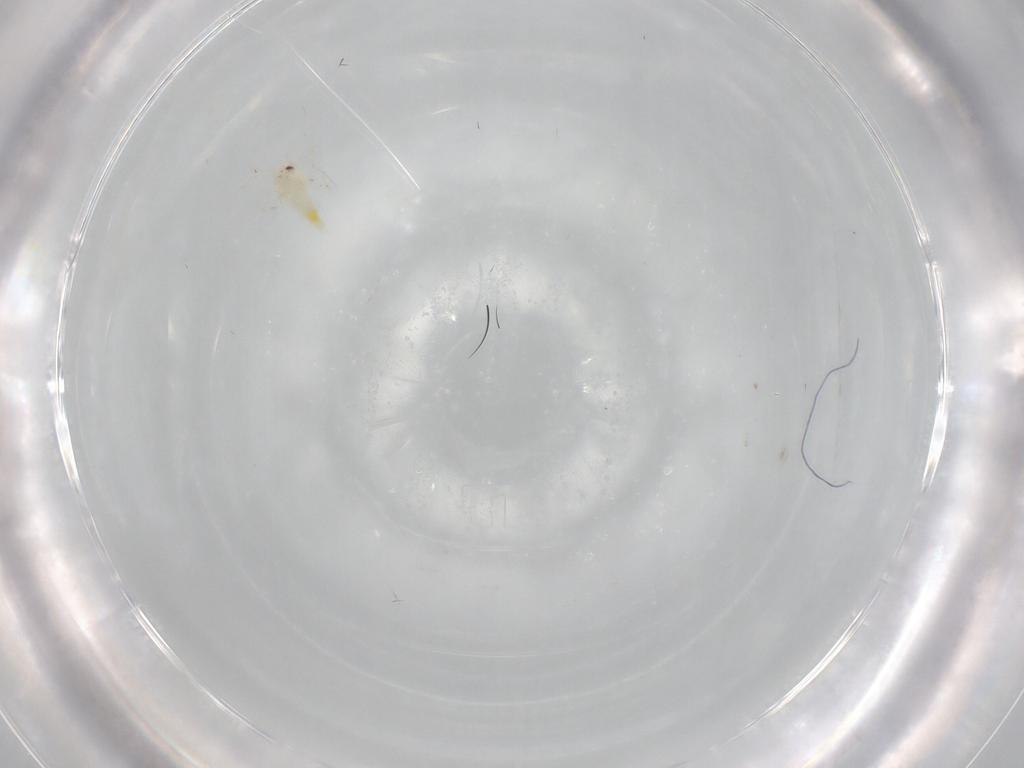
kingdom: Animalia
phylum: Arthropoda
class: Insecta
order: Hemiptera
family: Aleyrodidae
